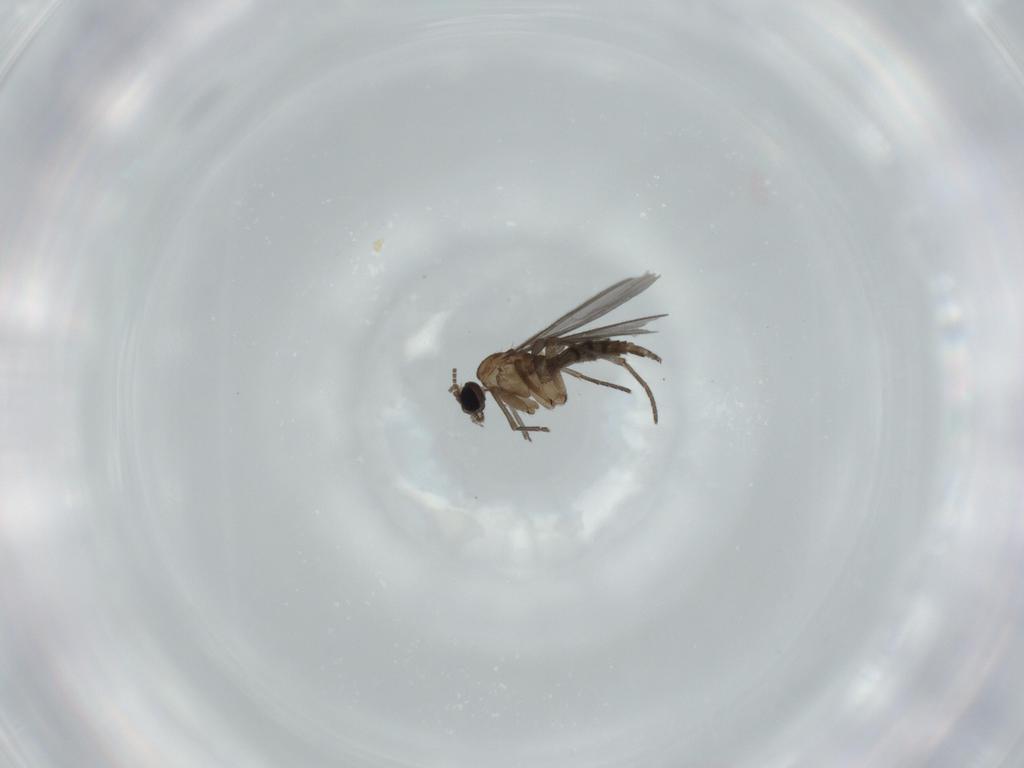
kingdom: Animalia
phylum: Arthropoda
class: Insecta
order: Diptera
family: Sciaridae
